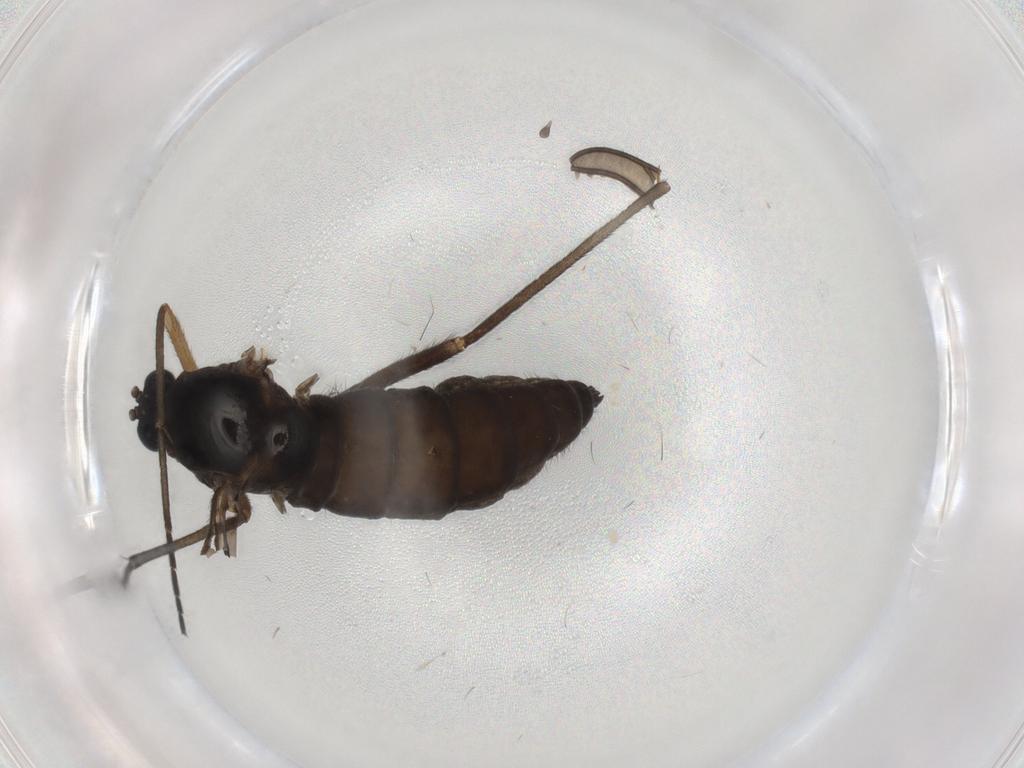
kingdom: Animalia
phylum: Arthropoda
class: Insecta
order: Diptera
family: Sciaridae
